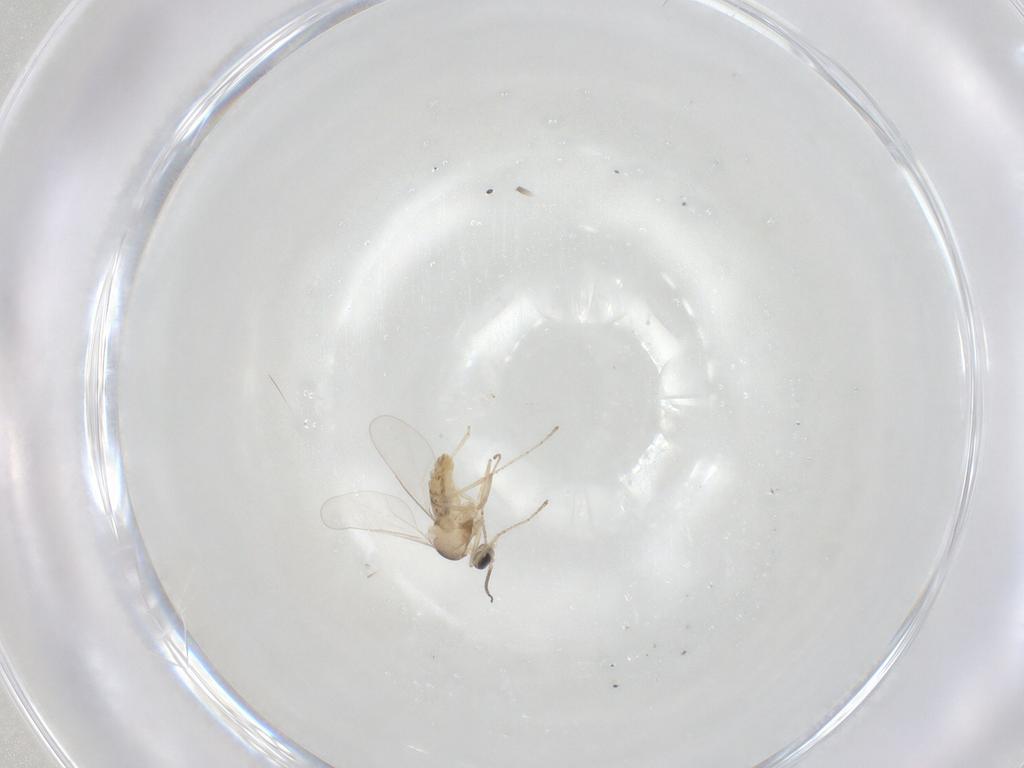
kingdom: Animalia
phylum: Arthropoda
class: Insecta
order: Diptera
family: Cecidomyiidae
